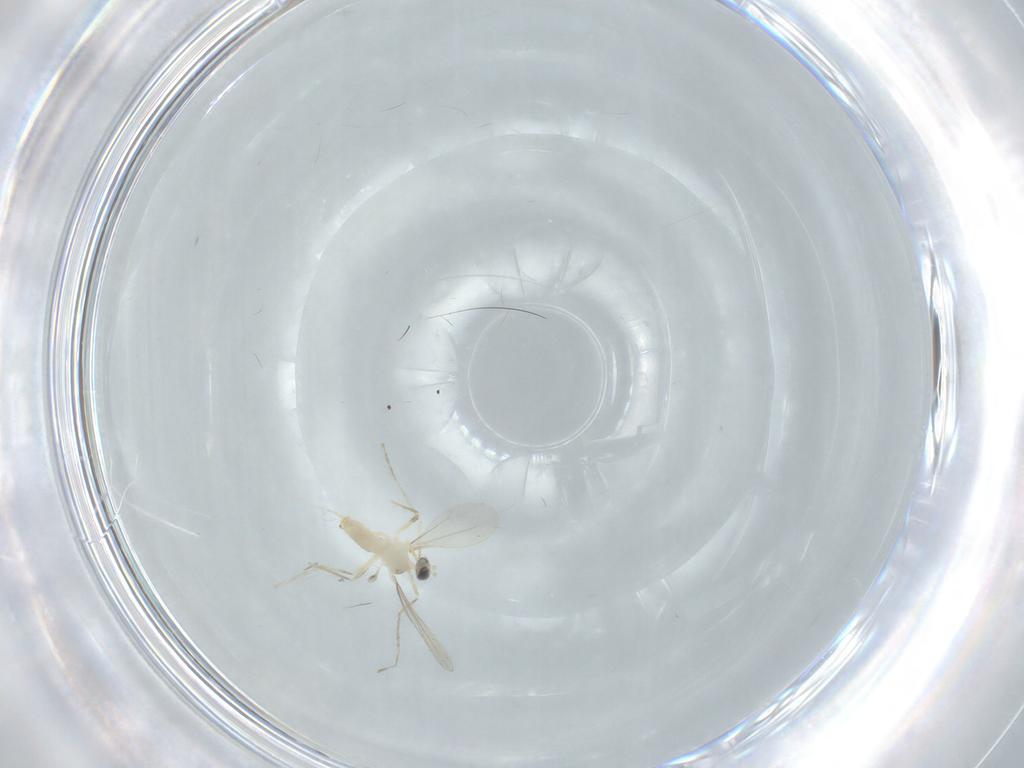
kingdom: Animalia
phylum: Arthropoda
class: Insecta
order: Diptera
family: Cecidomyiidae
